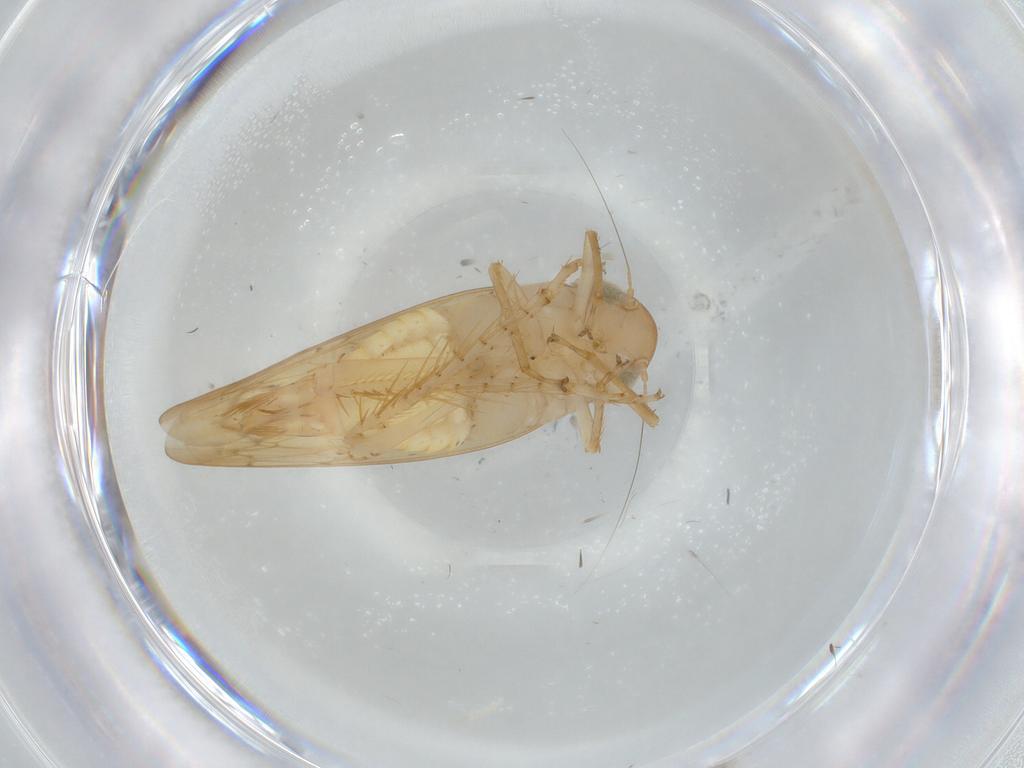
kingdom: Animalia
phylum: Arthropoda
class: Insecta
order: Hemiptera
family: Cicadellidae
